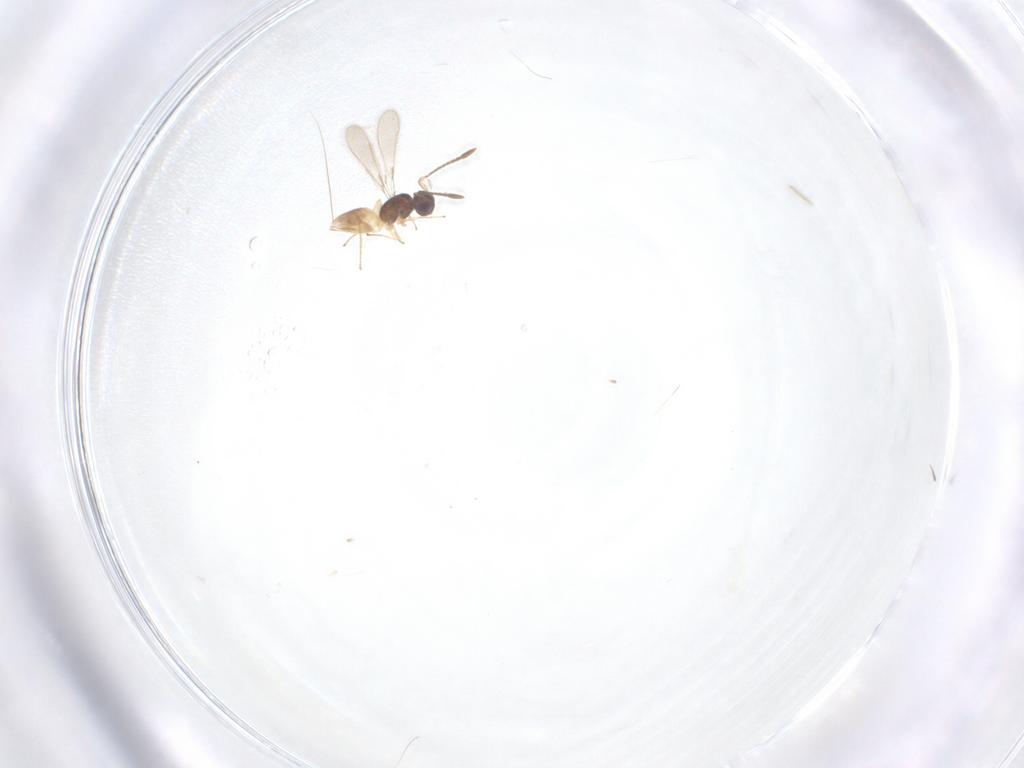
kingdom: Animalia
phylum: Arthropoda
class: Insecta
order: Hymenoptera
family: Mymaridae
